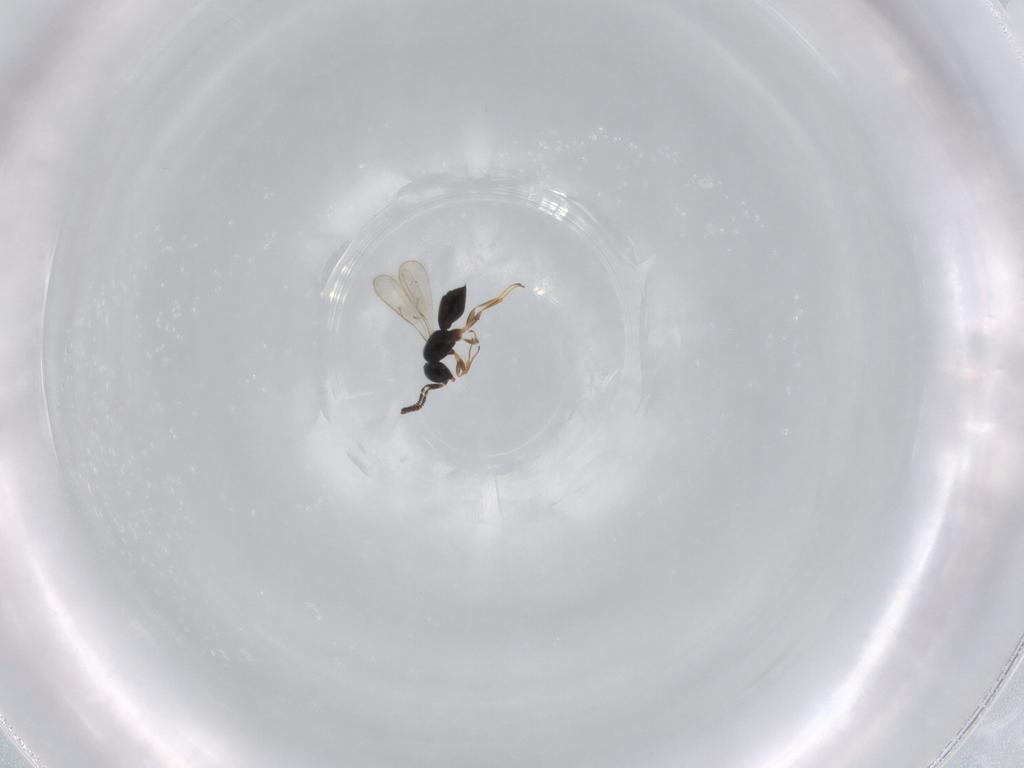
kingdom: Animalia
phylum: Arthropoda
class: Insecta
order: Hymenoptera
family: Scelionidae
